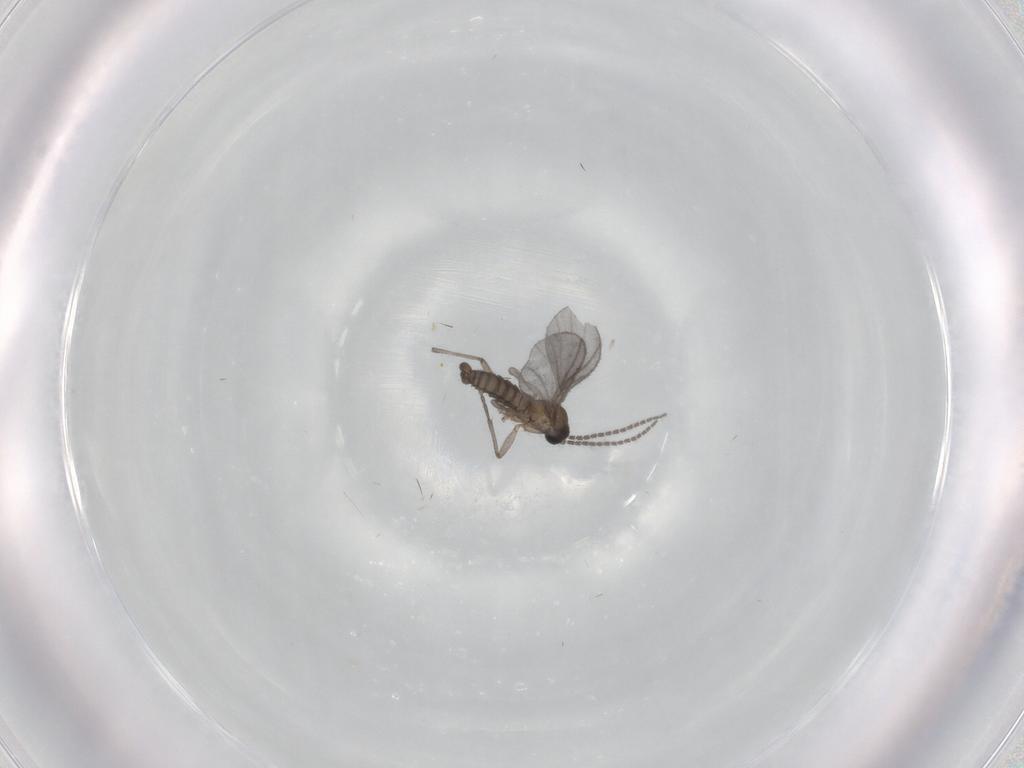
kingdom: Animalia
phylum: Arthropoda
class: Insecta
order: Diptera
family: Sciaridae
